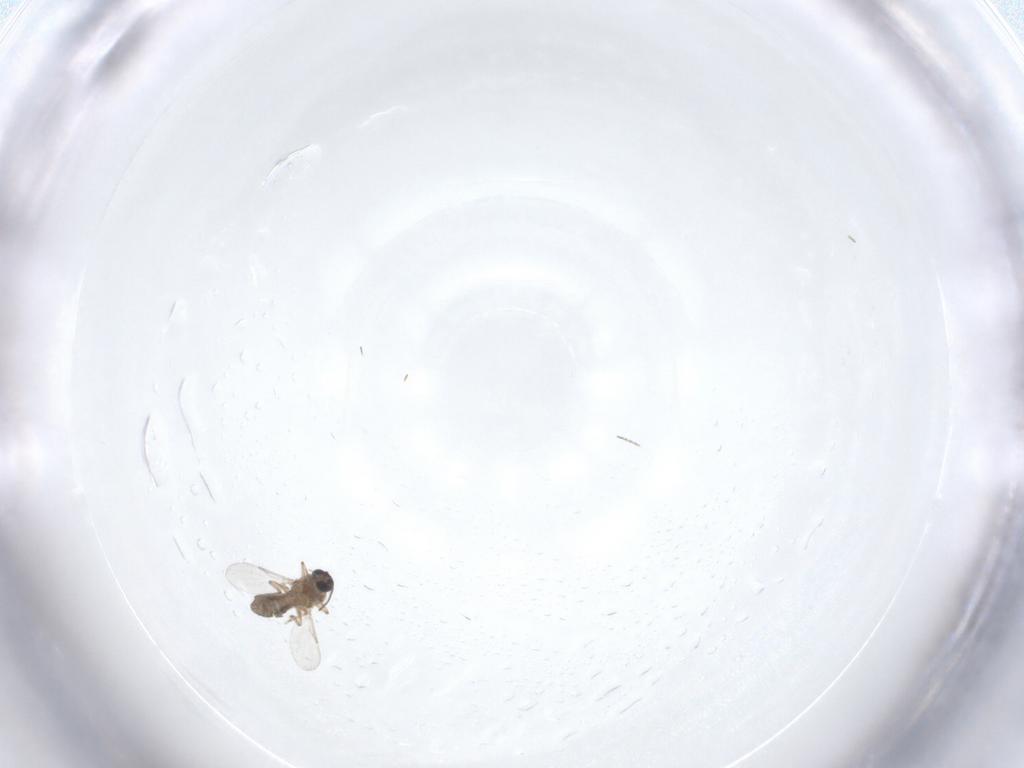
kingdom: Animalia
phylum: Arthropoda
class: Insecta
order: Diptera
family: Ceratopogonidae
